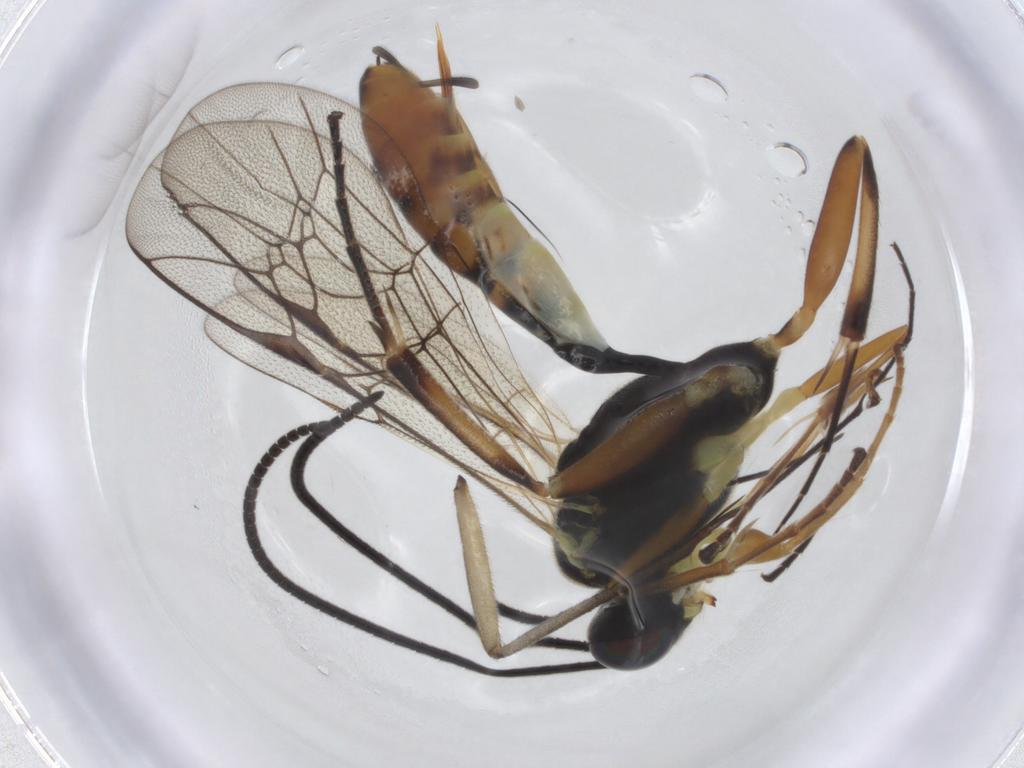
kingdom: Animalia
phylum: Arthropoda
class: Insecta
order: Hymenoptera
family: Ichneumonidae
